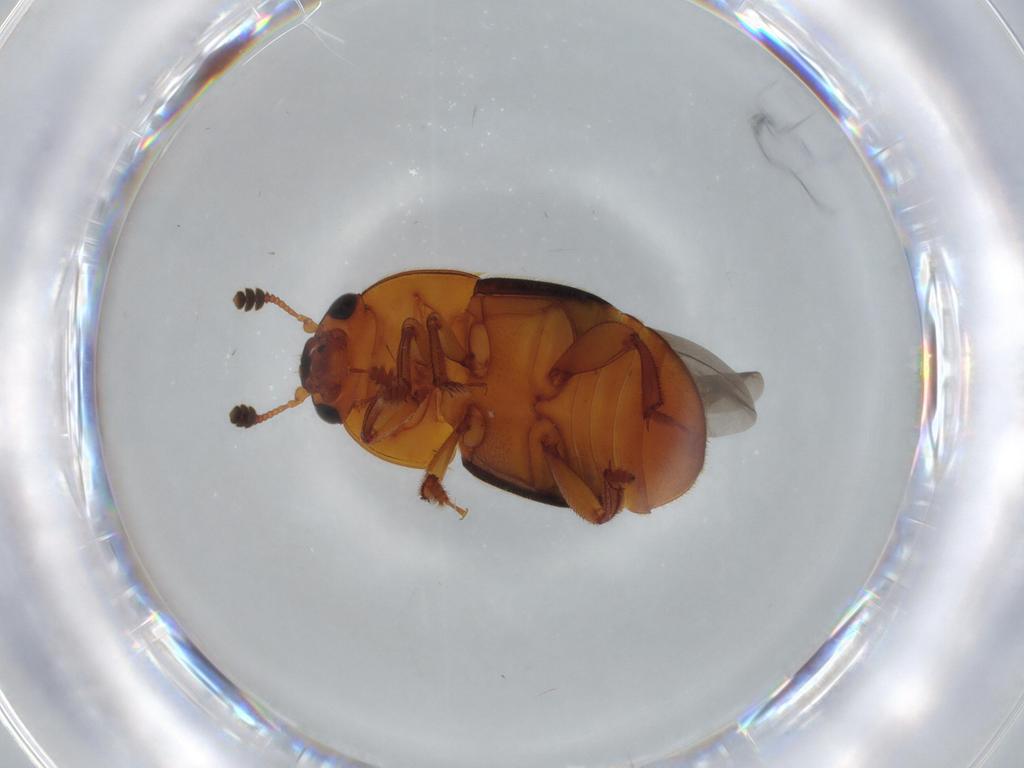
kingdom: Animalia
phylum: Arthropoda
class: Insecta
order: Coleoptera
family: Nitidulidae
